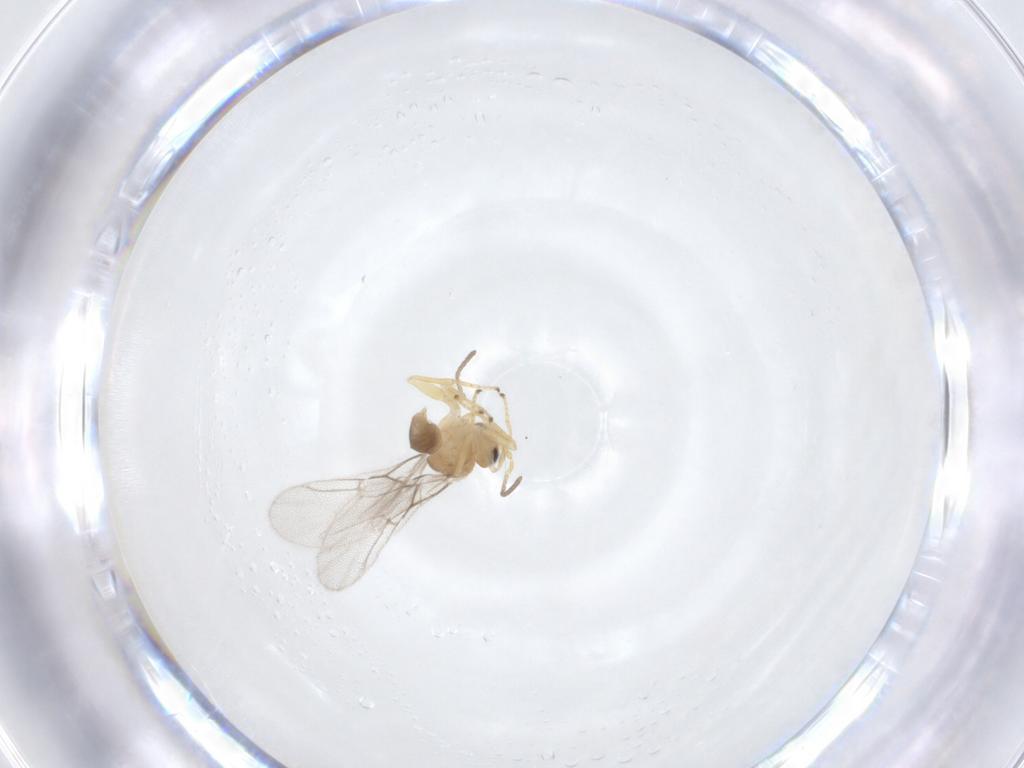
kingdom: Animalia
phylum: Arthropoda
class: Insecta
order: Hymenoptera
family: Cynipidae
